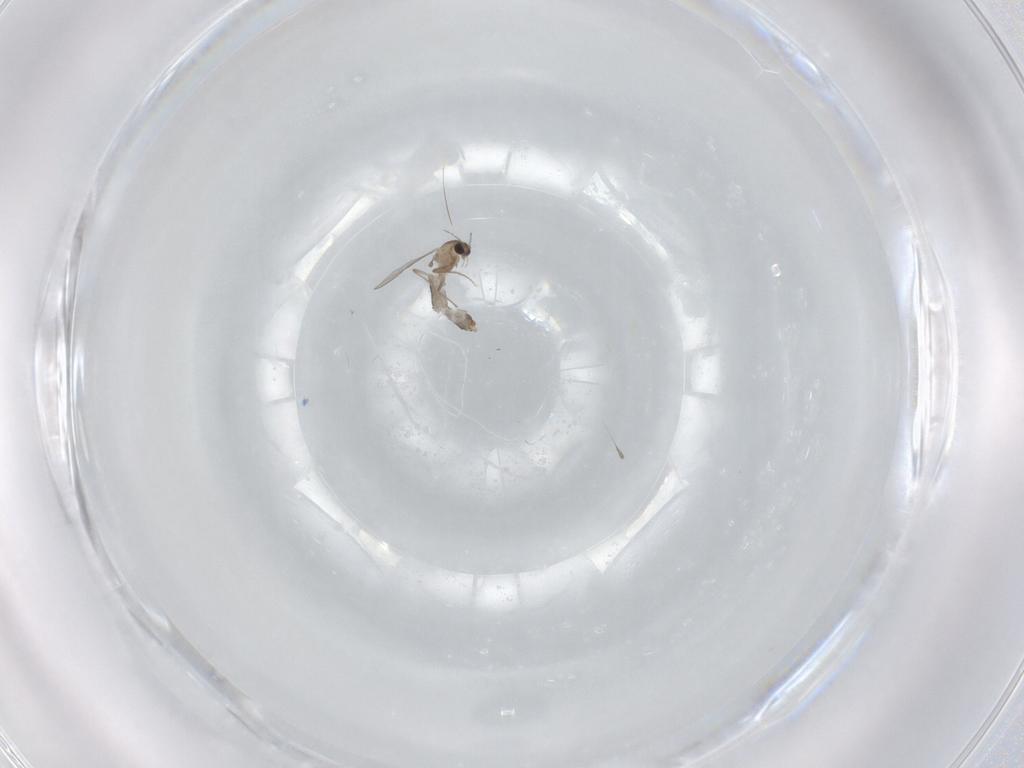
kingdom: Animalia
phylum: Arthropoda
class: Insecta
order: Diptera
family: Chironomidae
